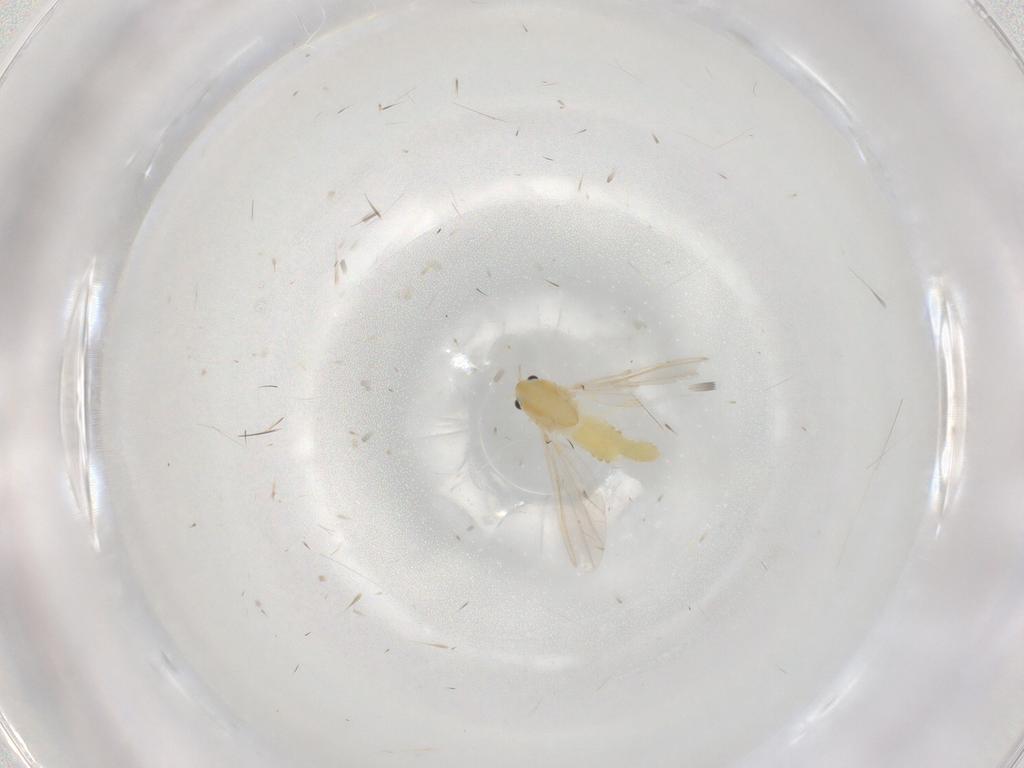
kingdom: Animalia
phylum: Arthropoda
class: Insecta
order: Diptera
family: Chironomidae
